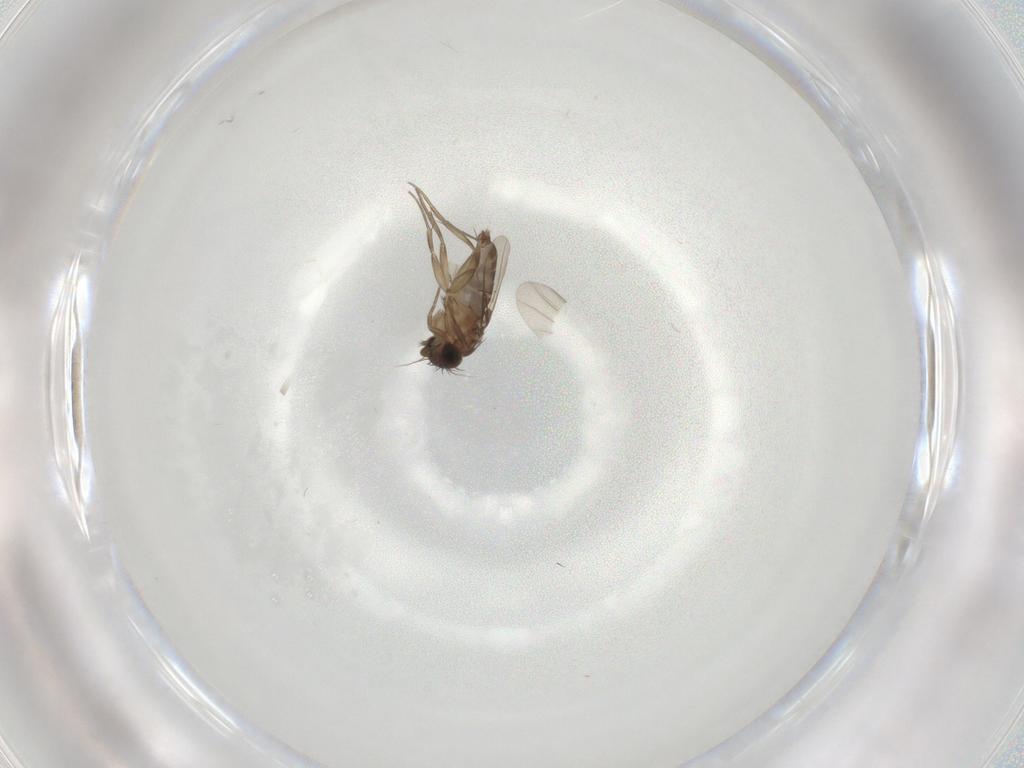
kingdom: Animalia
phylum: Arthropoda
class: Insecta
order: Diptera
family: Phoridae
